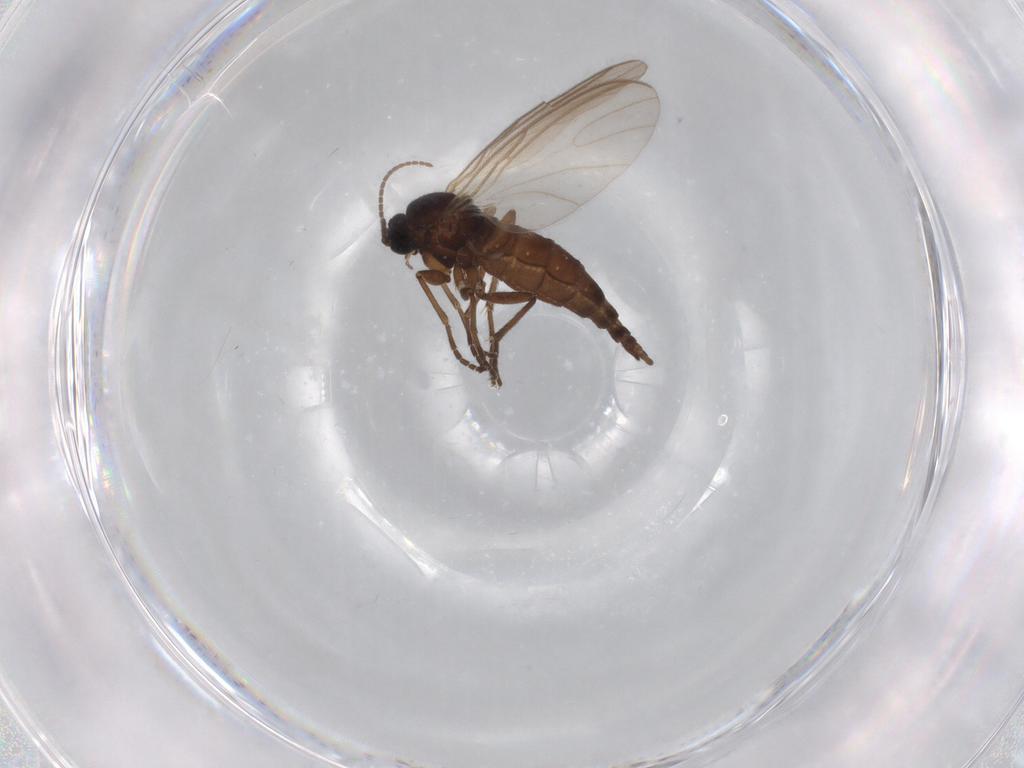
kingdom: Animalia
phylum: Arthropoda
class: Insecta
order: Diptera
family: Sciaridae
